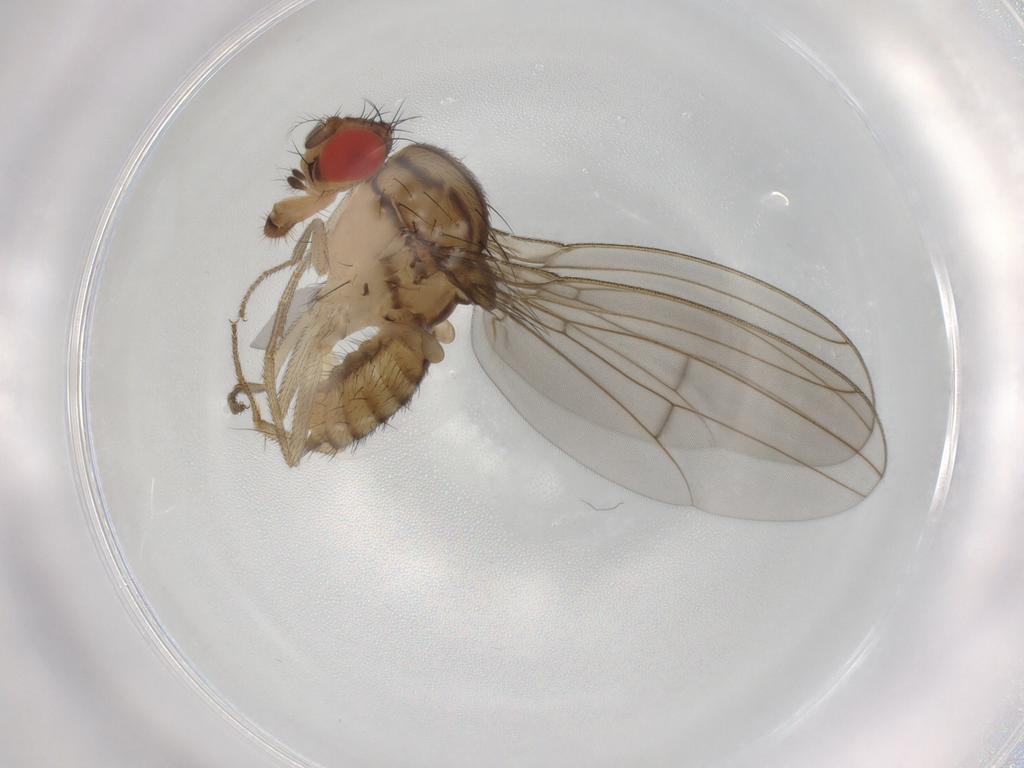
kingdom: Animalia
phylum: Arthropoda
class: Insecta
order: Diptera
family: Drosophilidae
